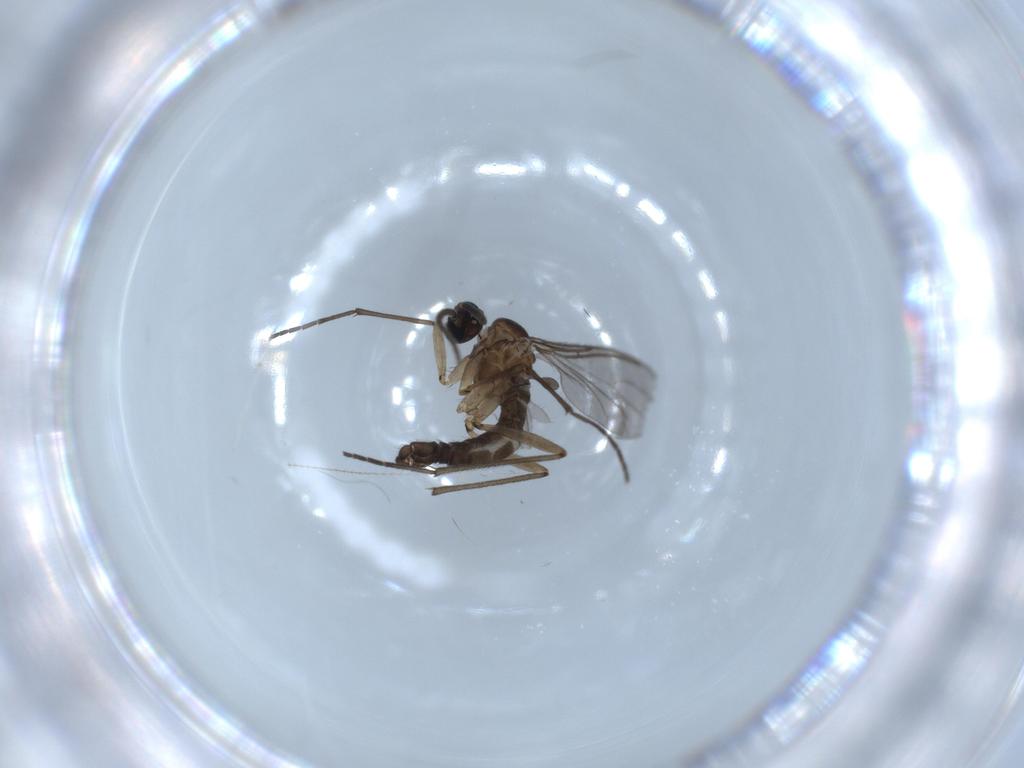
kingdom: Animalia
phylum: Arthropoda
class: Insecta
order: Diptera
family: Sciaridae
